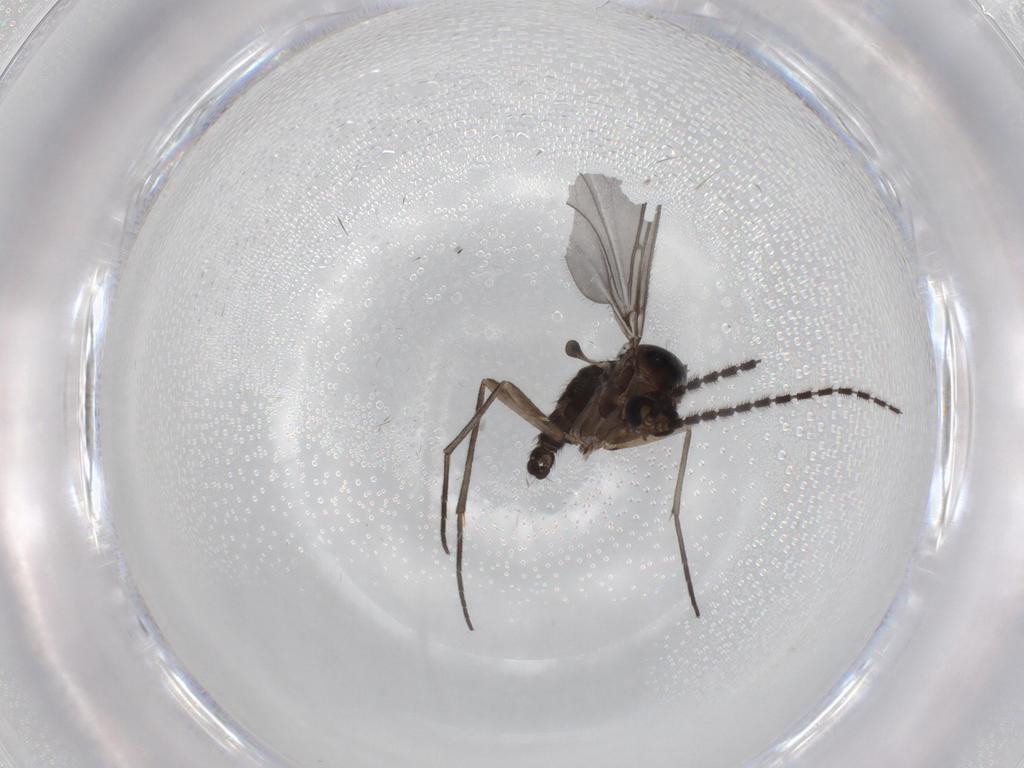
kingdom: Animalia
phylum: Arthropoda
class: Insecta
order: Diptera
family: Sciaridae
